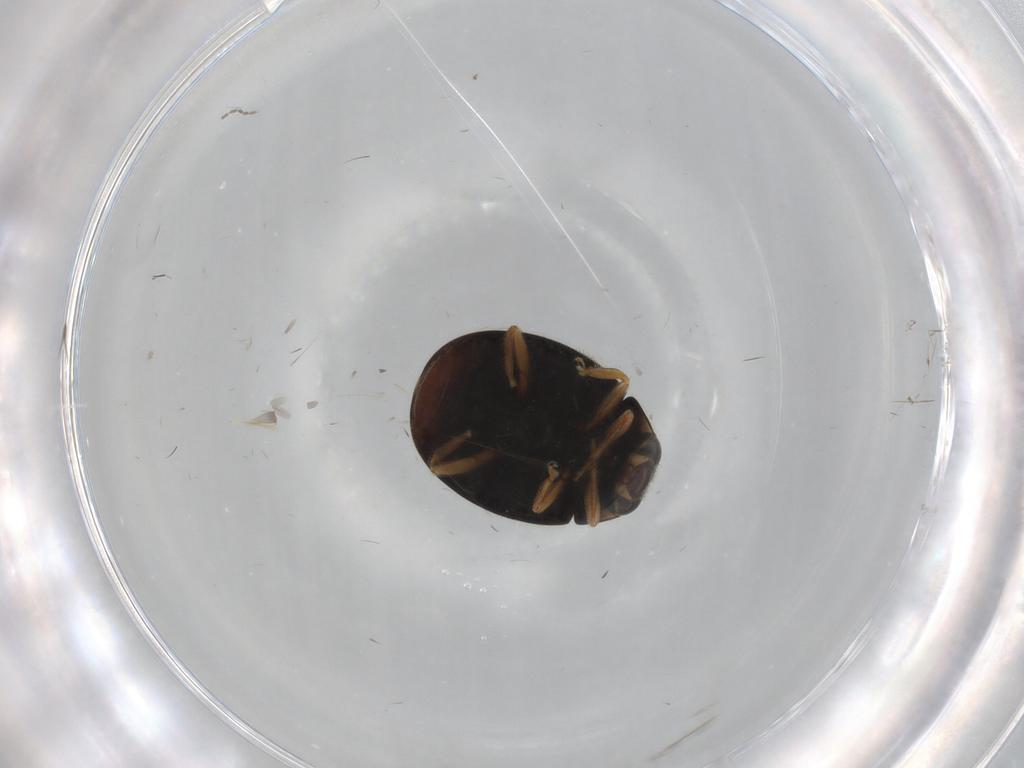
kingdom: Animalia
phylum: Arthropoda
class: Insecta
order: Coleoptera
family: Coccinellidae
